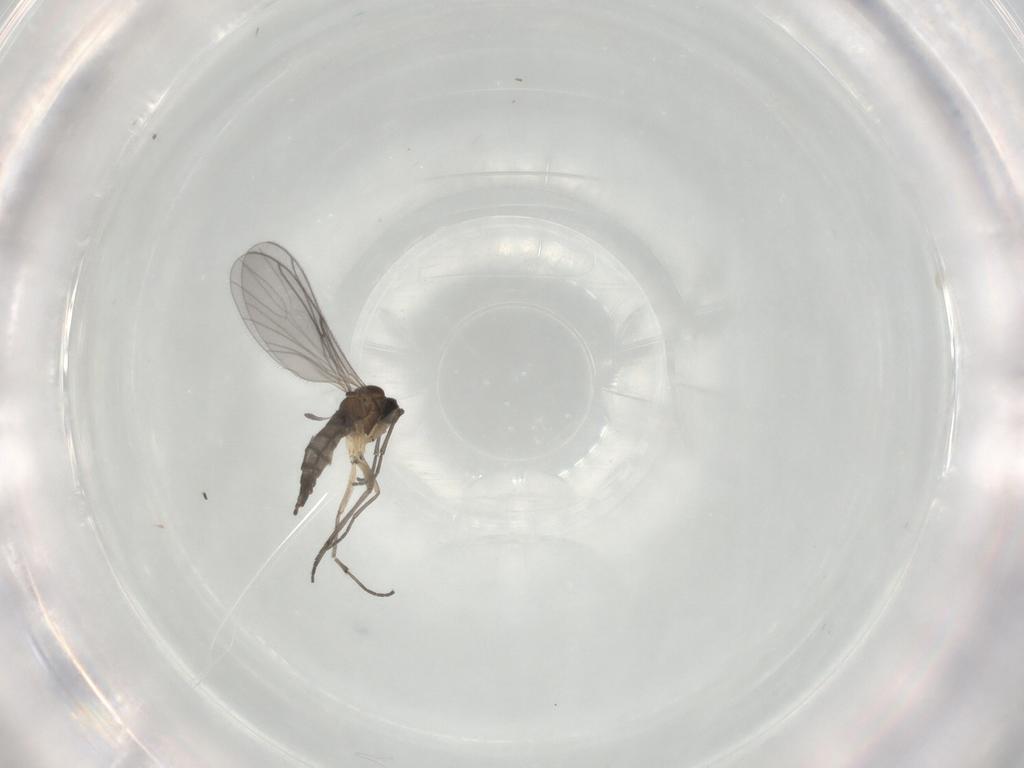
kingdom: Animalia
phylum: Arthropoda
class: Insecta
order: Diptera
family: Sciaridae
